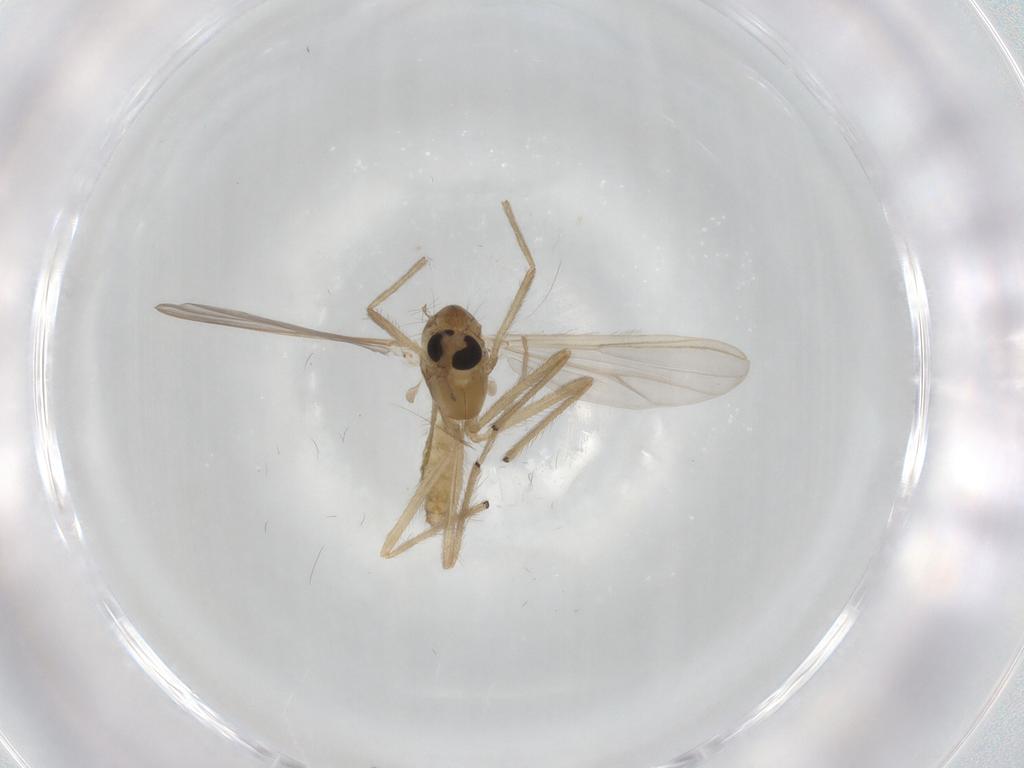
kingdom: Animalia
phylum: Arthropoda
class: Insecta
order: Diptera
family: Chironomidae
